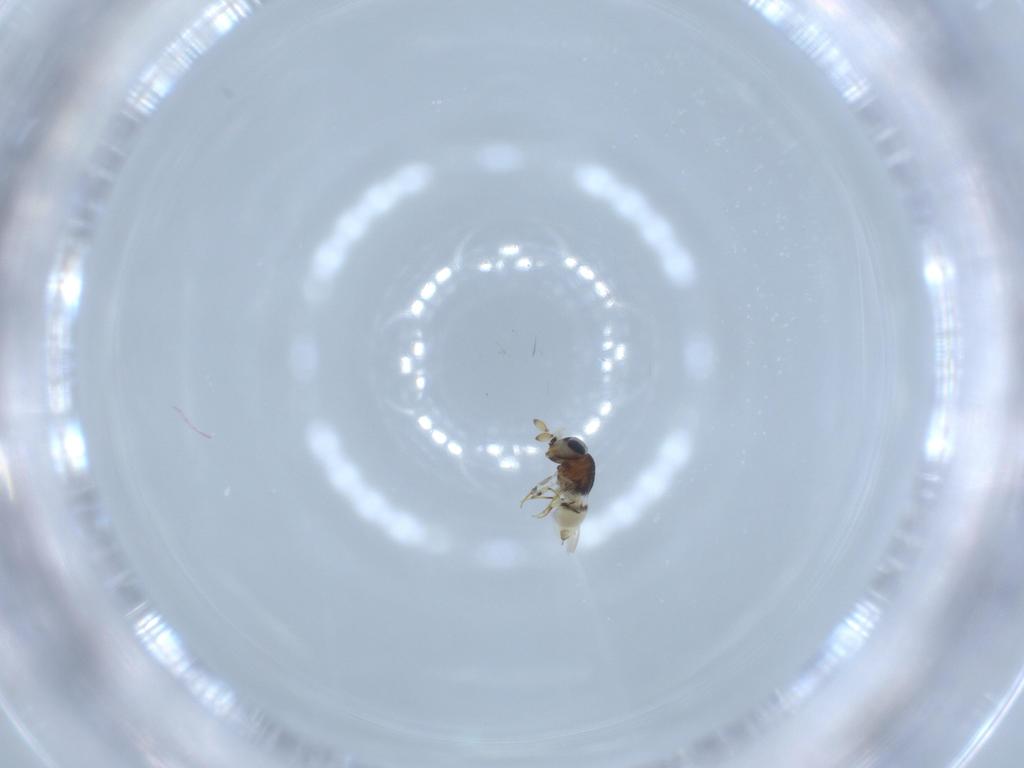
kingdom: Animalia
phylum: Arthropoda
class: Insecta
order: Hymenoptera
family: Scelionidae
